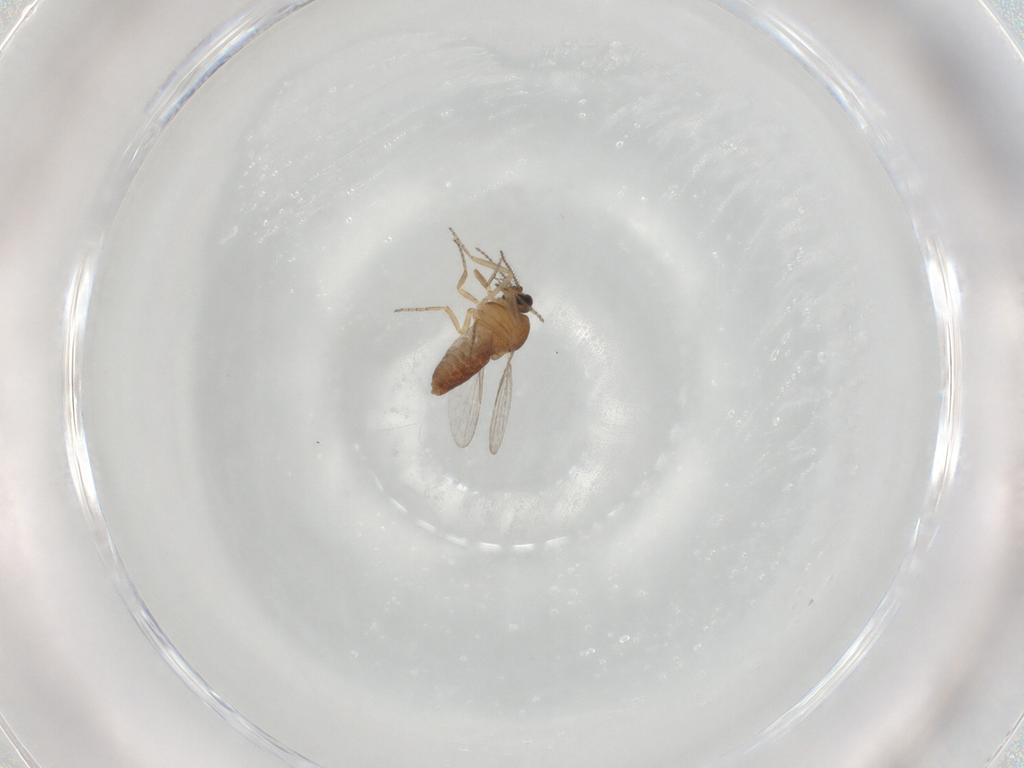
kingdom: Animalia
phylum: Arthropoda
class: Insecta
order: Diptera
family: Ceratopogonidae
